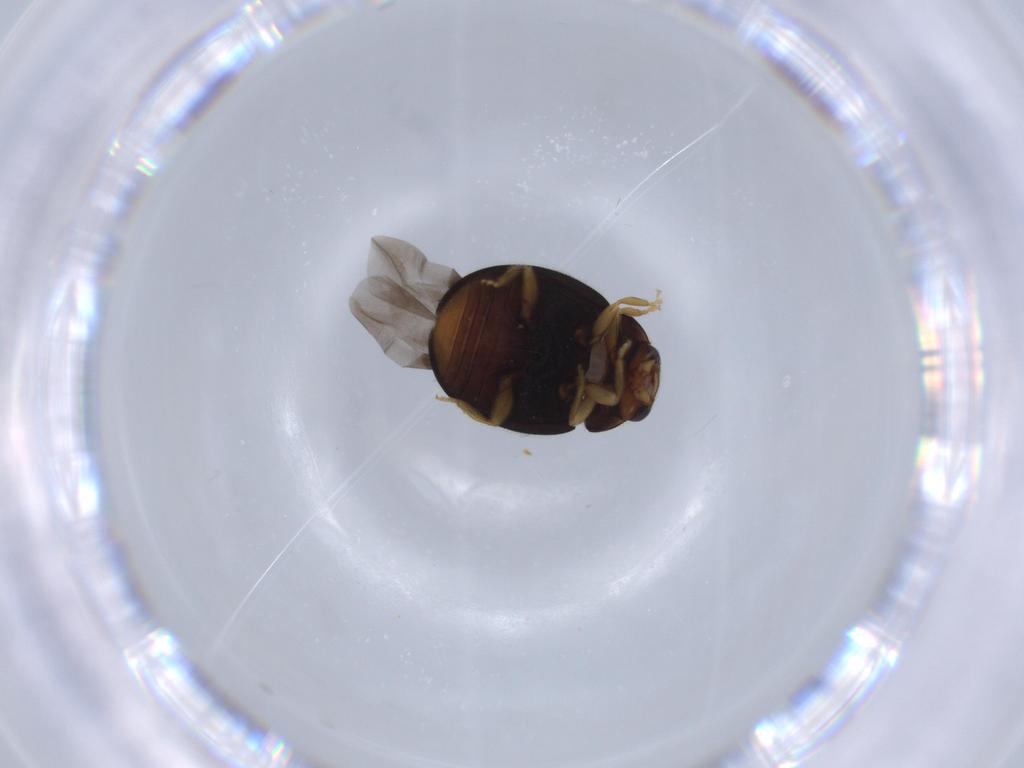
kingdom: Animalia
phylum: Arthropoda
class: Insecta
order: Coleoptera
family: Coccinellidae
